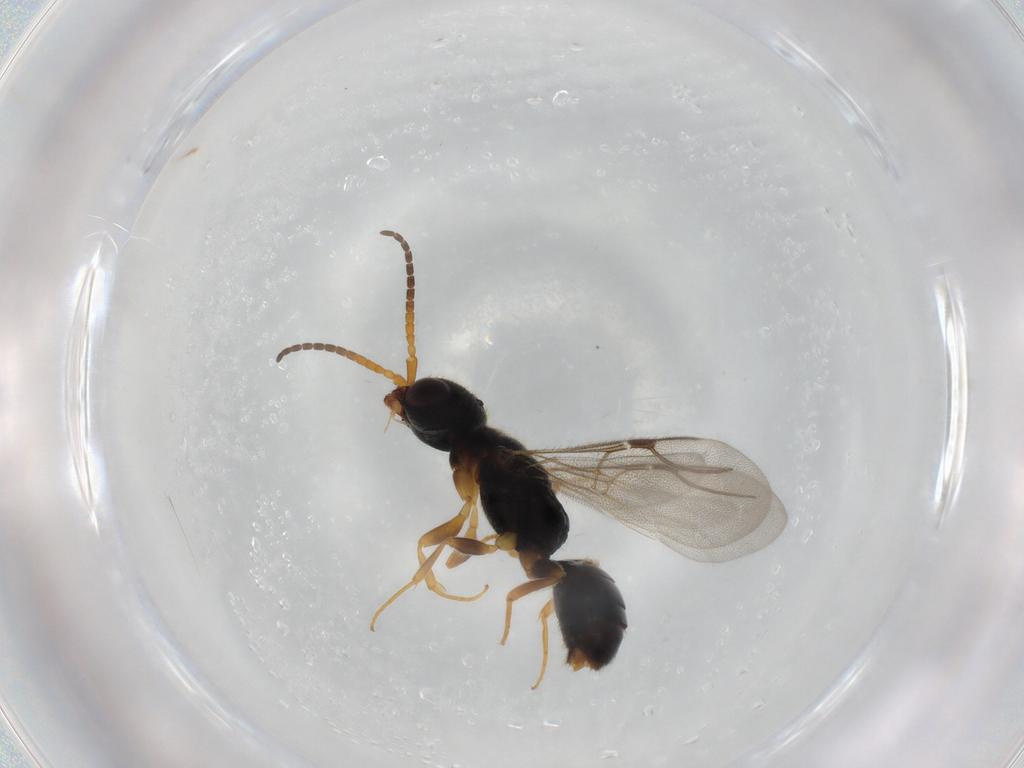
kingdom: Animalia
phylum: Arthropoda
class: Insecta
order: Hymenoptera
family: Bethylidae
